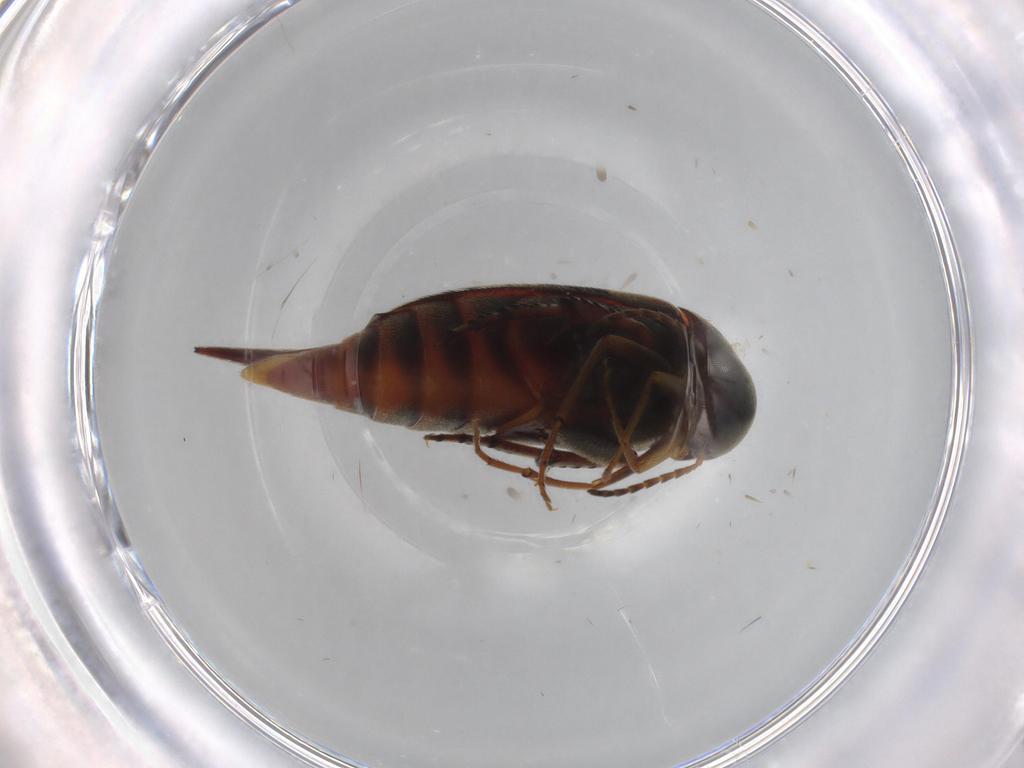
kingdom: Animalia
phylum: Arthropoda
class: Insecta
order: Coleoptera
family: Mordellidae
